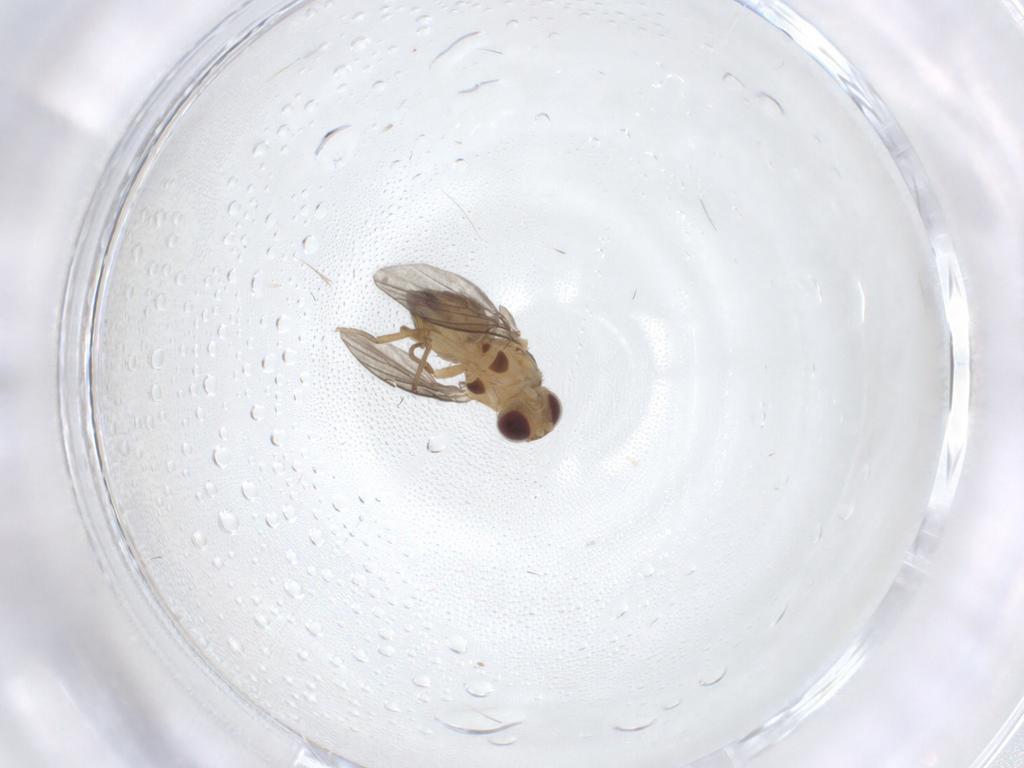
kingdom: Animalia
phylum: Arthropoda
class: Insecta
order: Diptera
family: Agromyzidae
